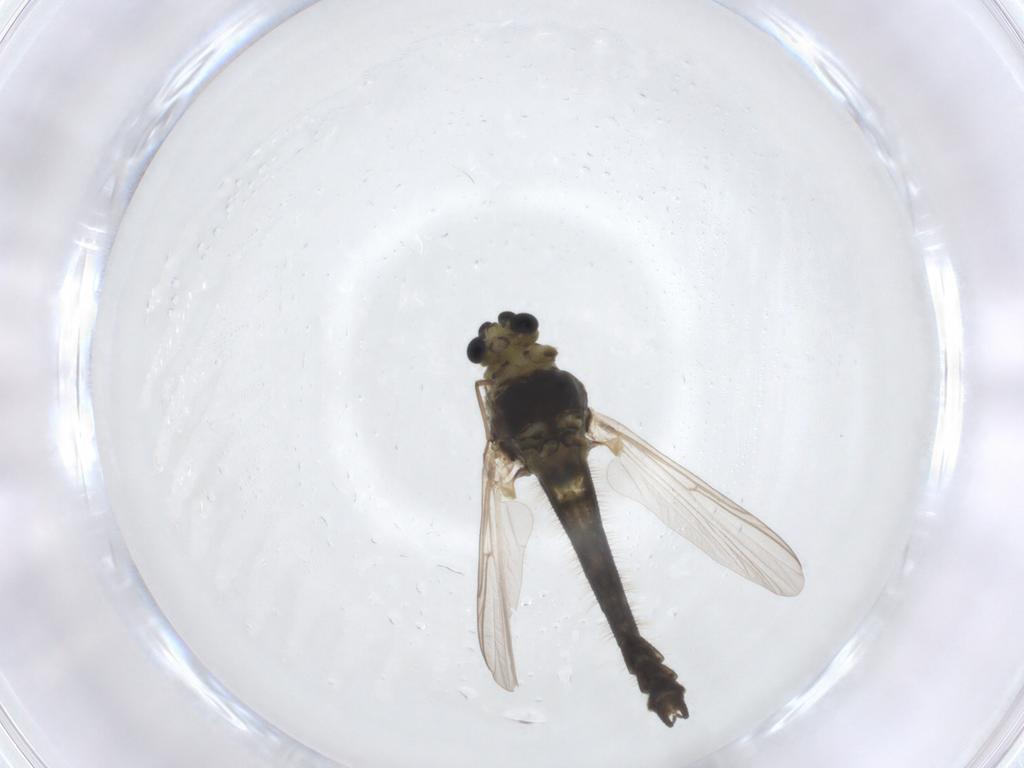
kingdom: Animalia
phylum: Arthropoda
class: Insecta
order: Diptera
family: Chironomidae
